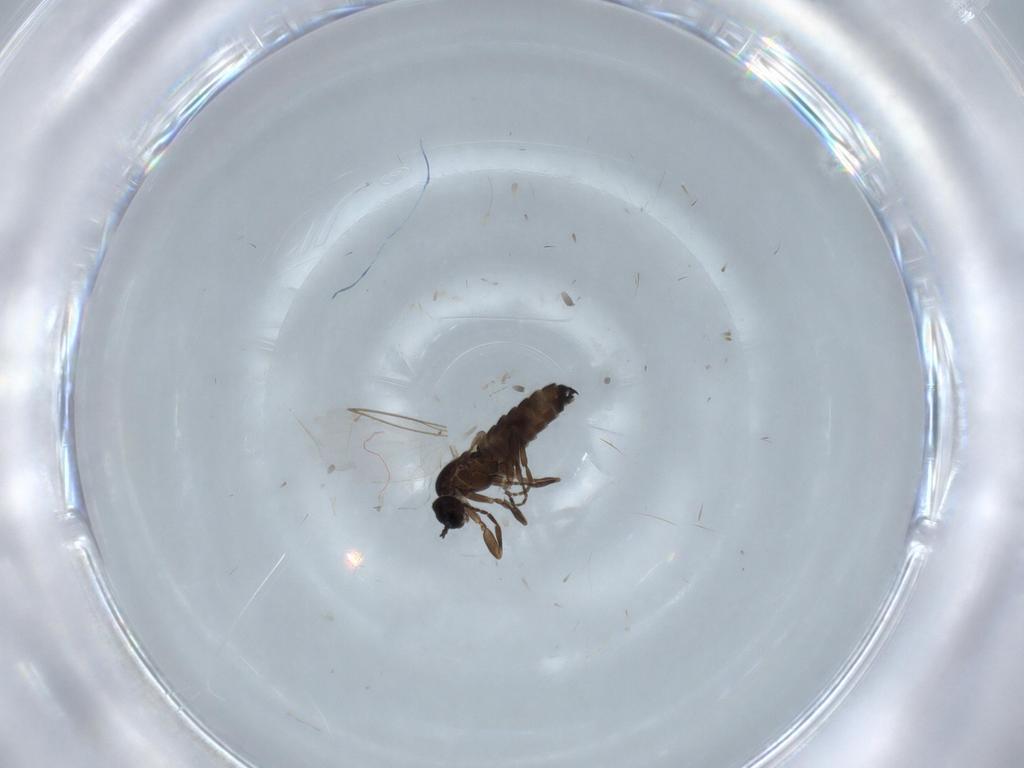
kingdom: Animalia
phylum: Arthropoda
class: Insecta
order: Diptera
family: Scatopsidae
